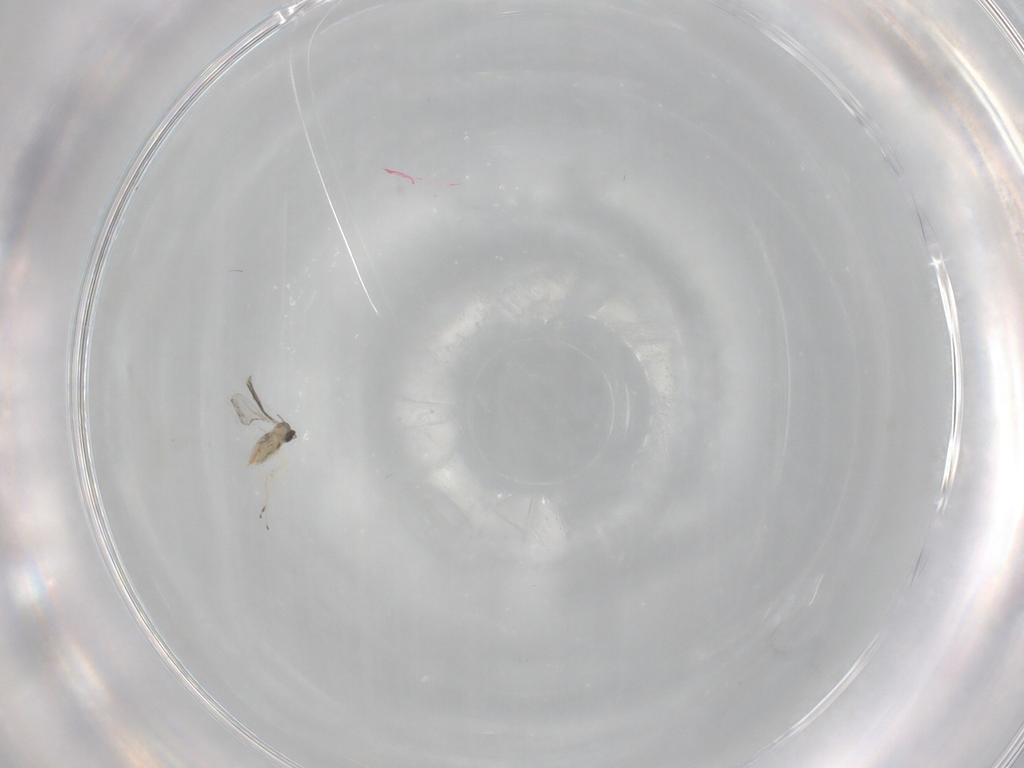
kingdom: Animalia
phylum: Arthropoda
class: Insecta
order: Diptera
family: Cecidomyiidae
